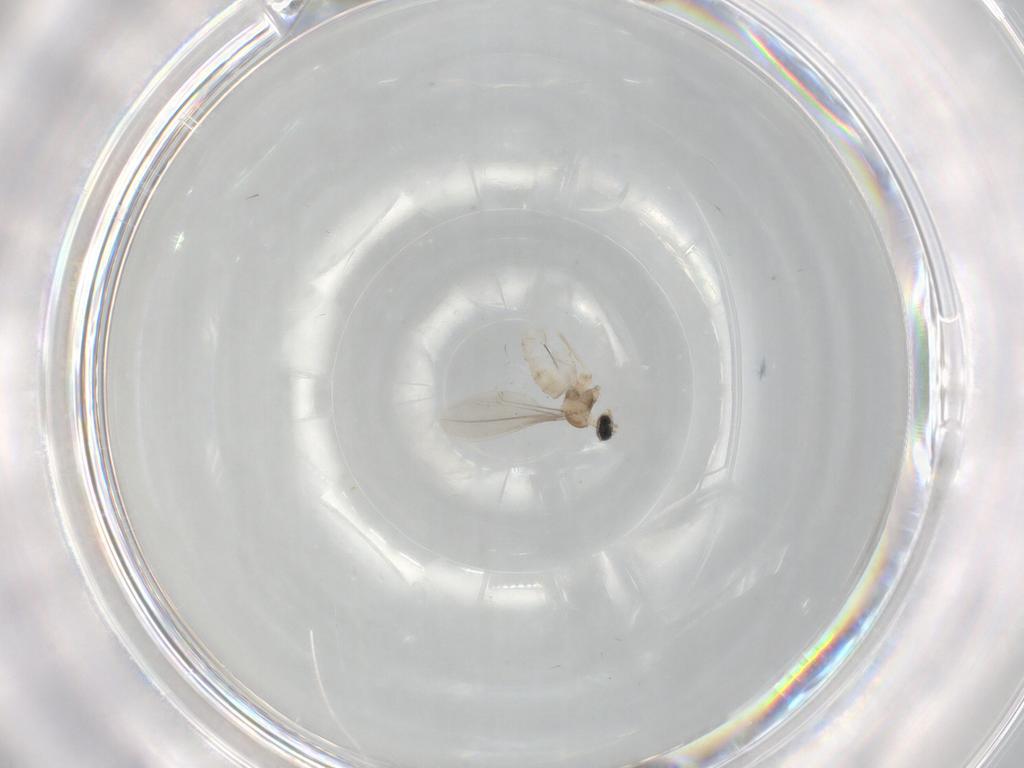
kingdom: Animalia
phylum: Arthropoda
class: Insecta
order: Diptera
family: Cecidomyiidae
